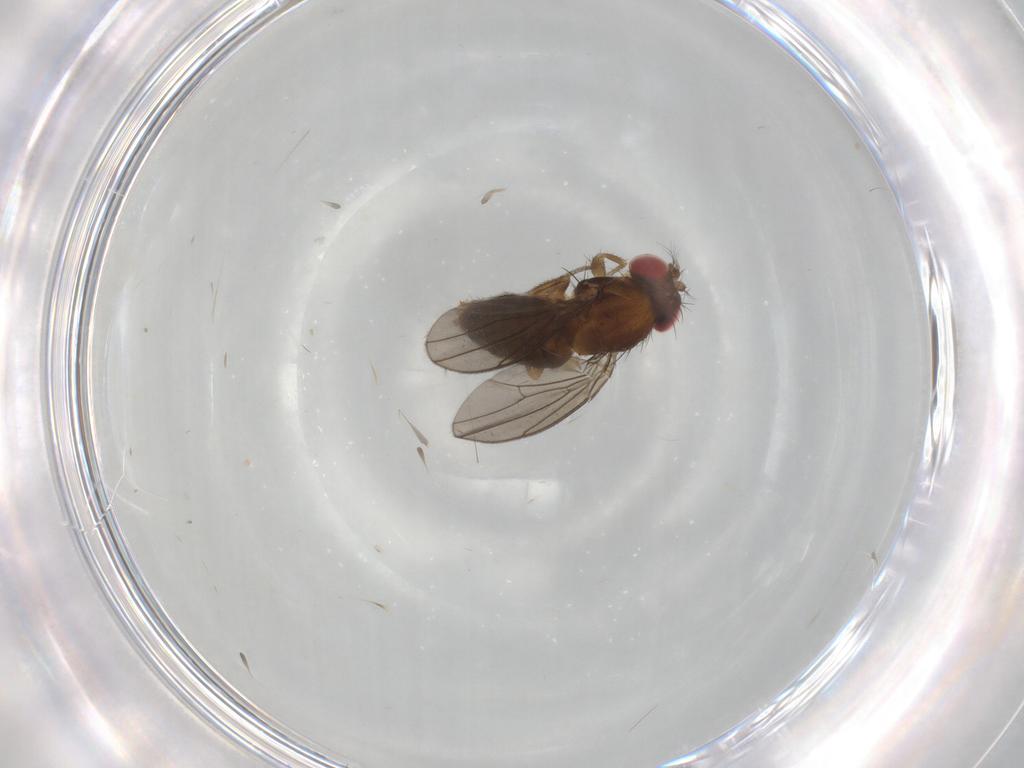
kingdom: Animalia
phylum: Arthropoda
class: Insecta
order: Diptera
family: Drosophilidae
